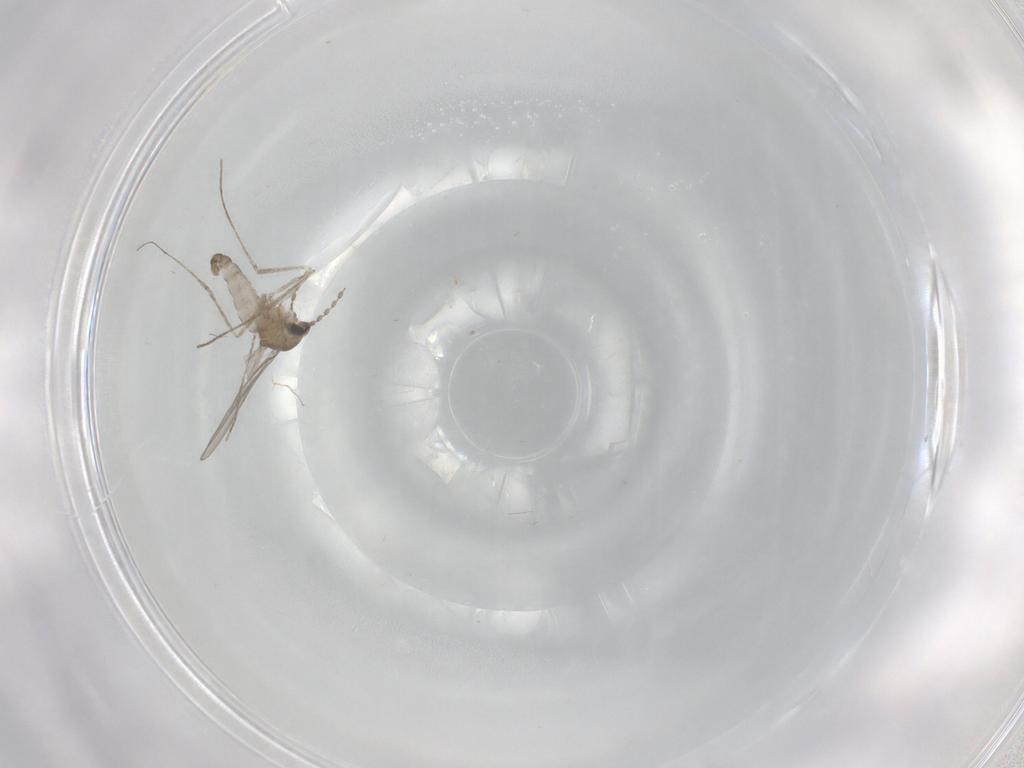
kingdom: Animalia
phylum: Arthropoda
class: Insecta
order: Diptera
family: Cecidomyiidae
